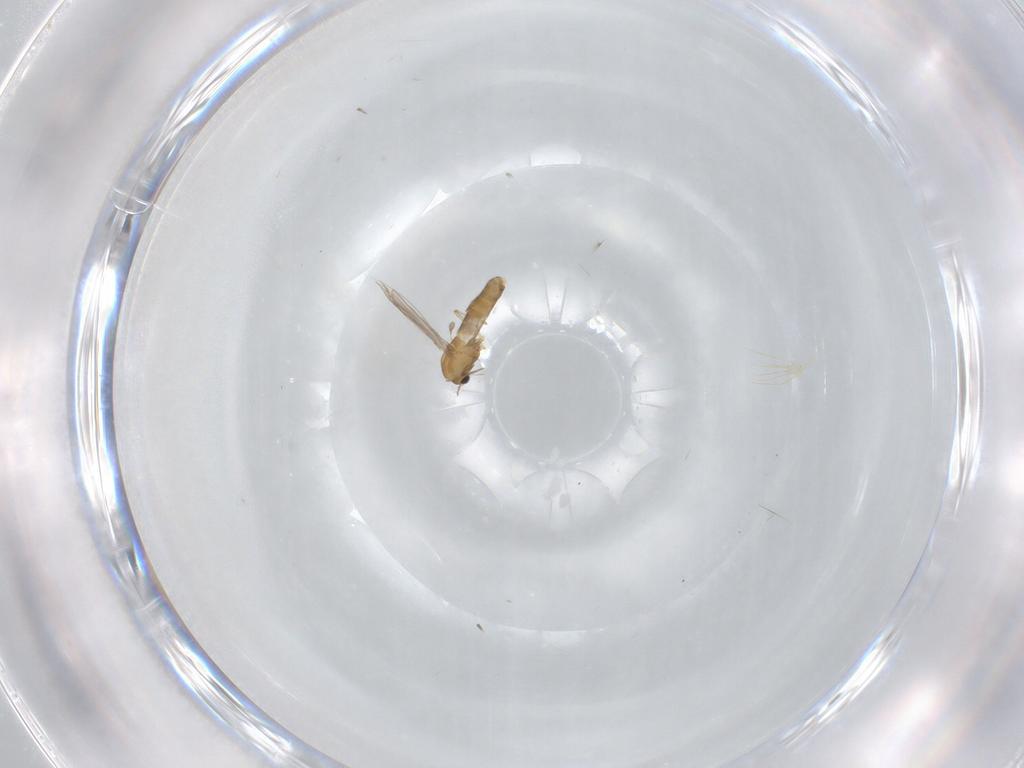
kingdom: Animalia
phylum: Arthropoda
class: Insecta
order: Diptera
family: Chironomidae
